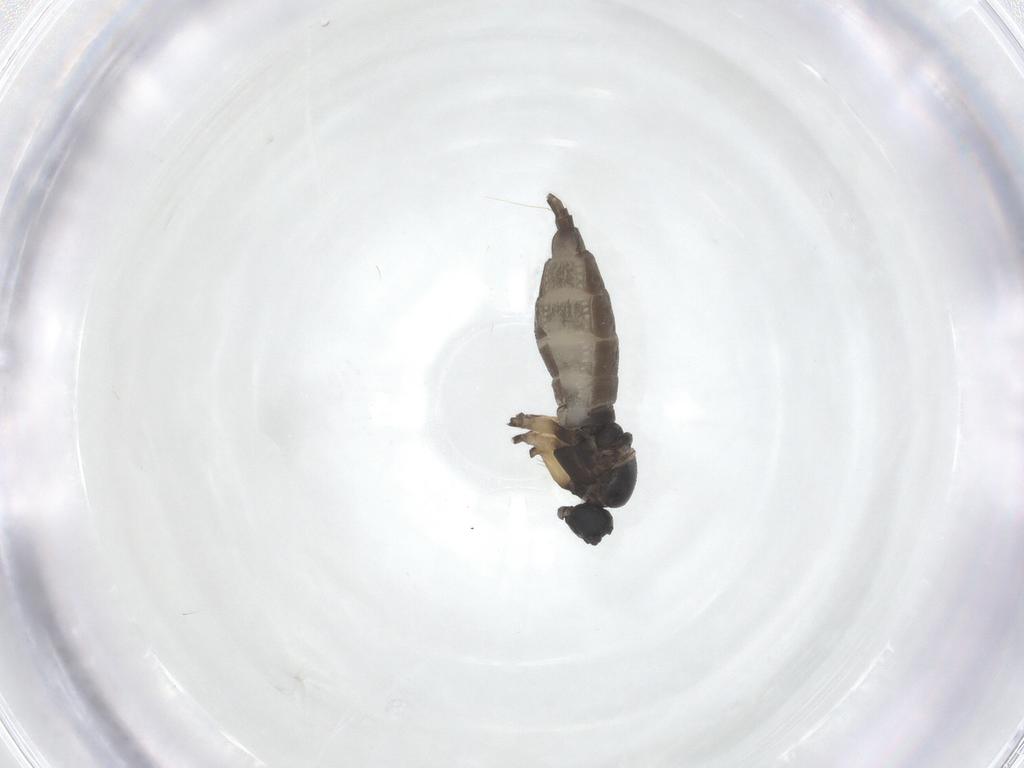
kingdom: Animalia
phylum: Arthropoda
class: Insecta
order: Diptera
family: Sciaridae
